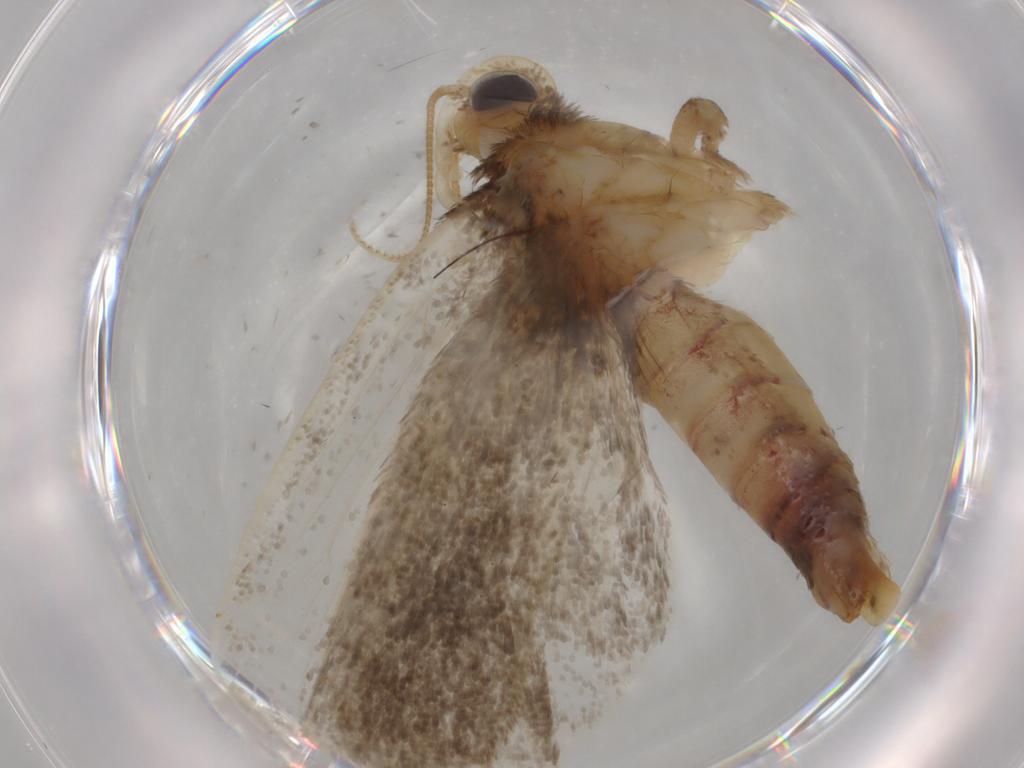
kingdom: Animalia
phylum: Arthropoda
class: Insecta
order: Lepidoptera
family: Tineidae
